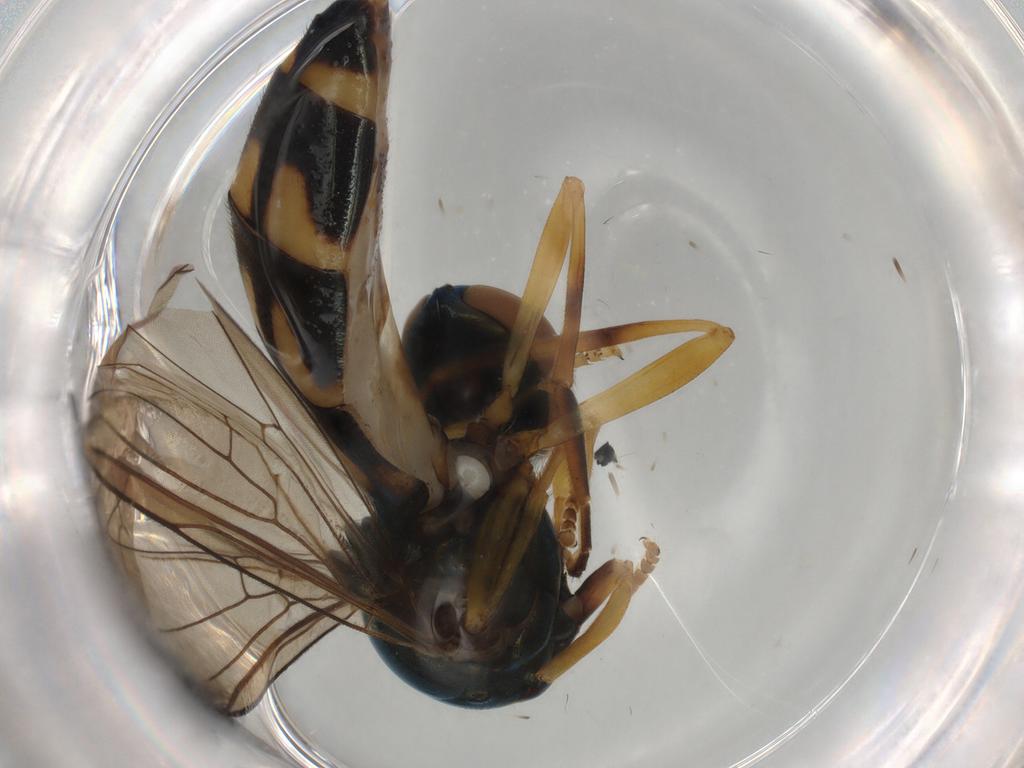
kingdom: Animalia
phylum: Arthropoda
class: Insecta
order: Diptera
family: Syrphidae
